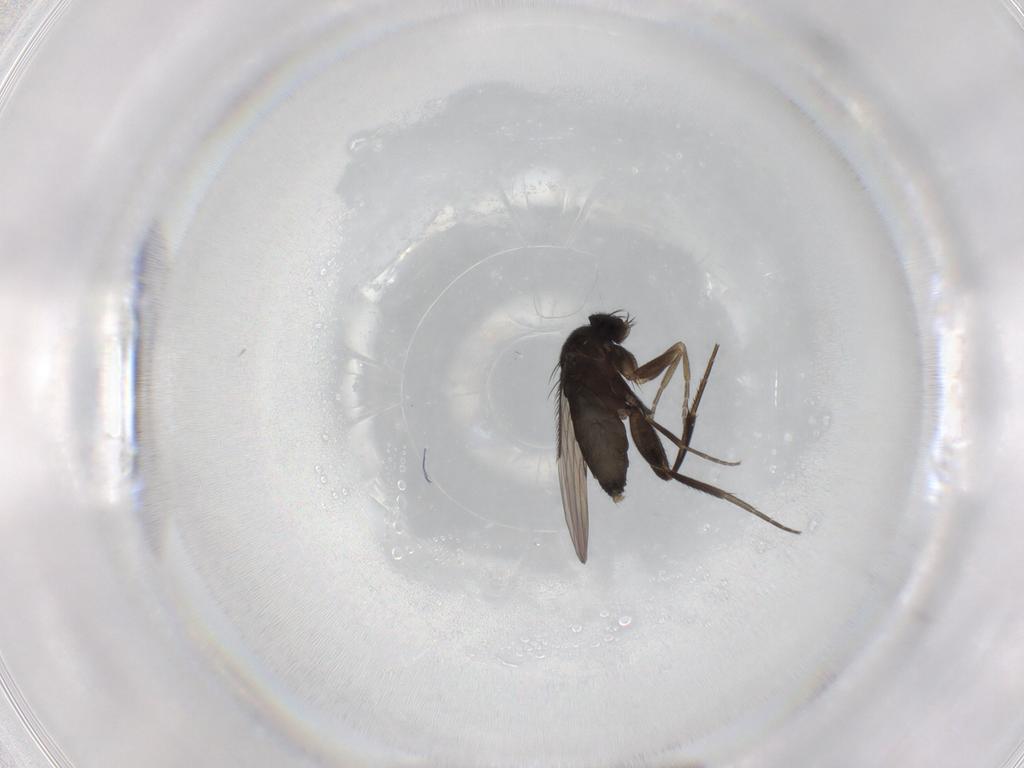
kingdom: Animalia
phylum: Arthropoda
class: Insecta
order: Diptera
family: Phoridae
